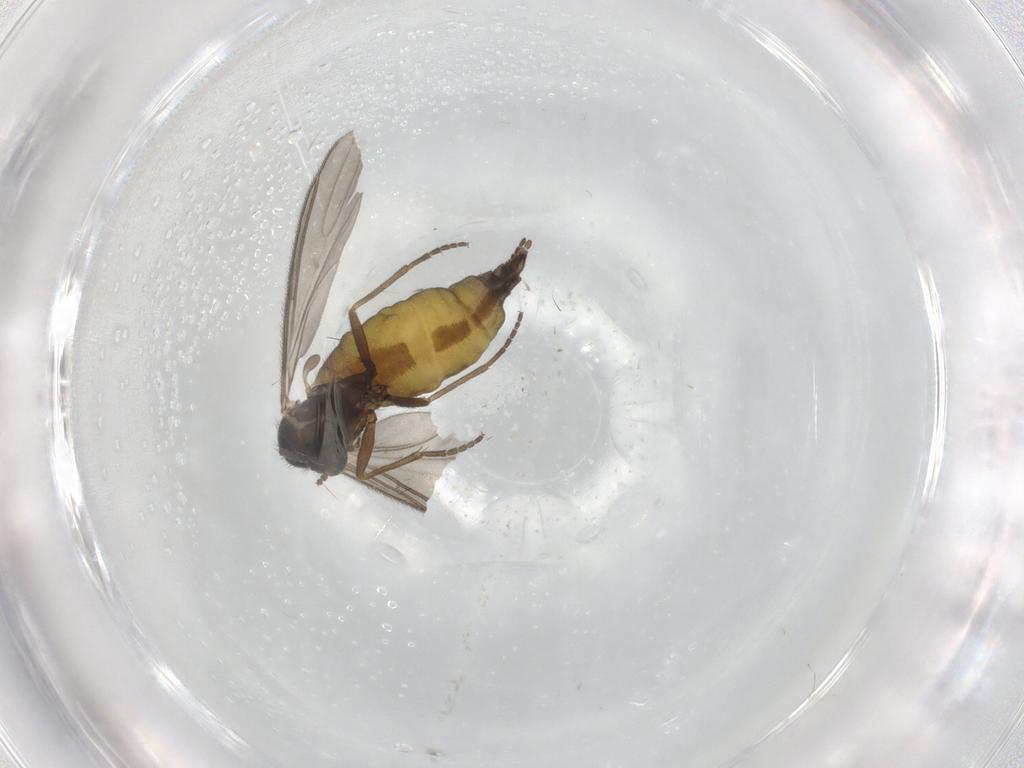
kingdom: Animalia
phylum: Arthropoda
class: Insecta
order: Diptera
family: Sciaridae
